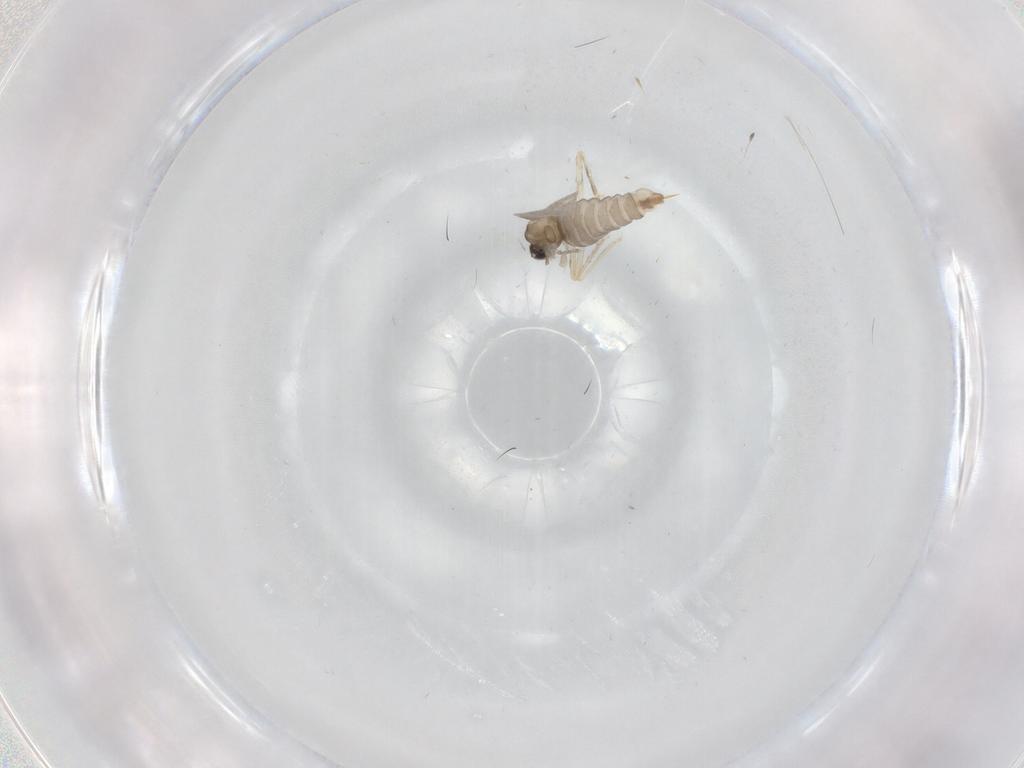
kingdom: Animalia
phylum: Arthropoda
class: Insecta
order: Diptera
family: Cecidomyiidae
